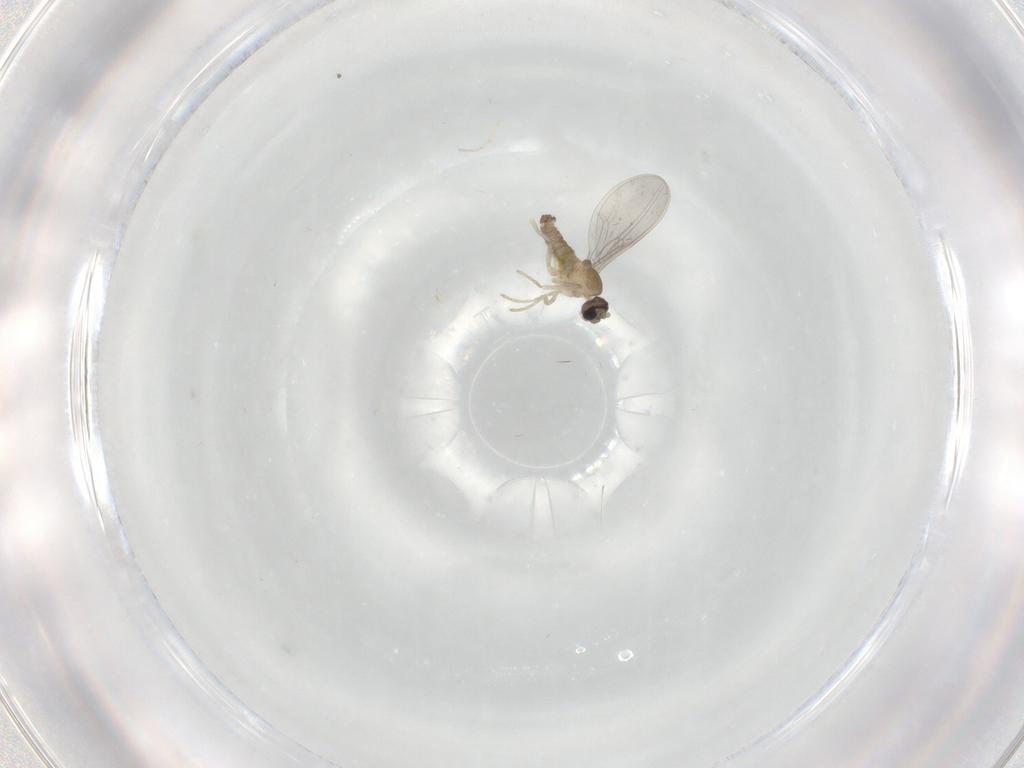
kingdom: Animalia
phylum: Arthropoda
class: Insecta
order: Diptera
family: Cecidomyiidae
